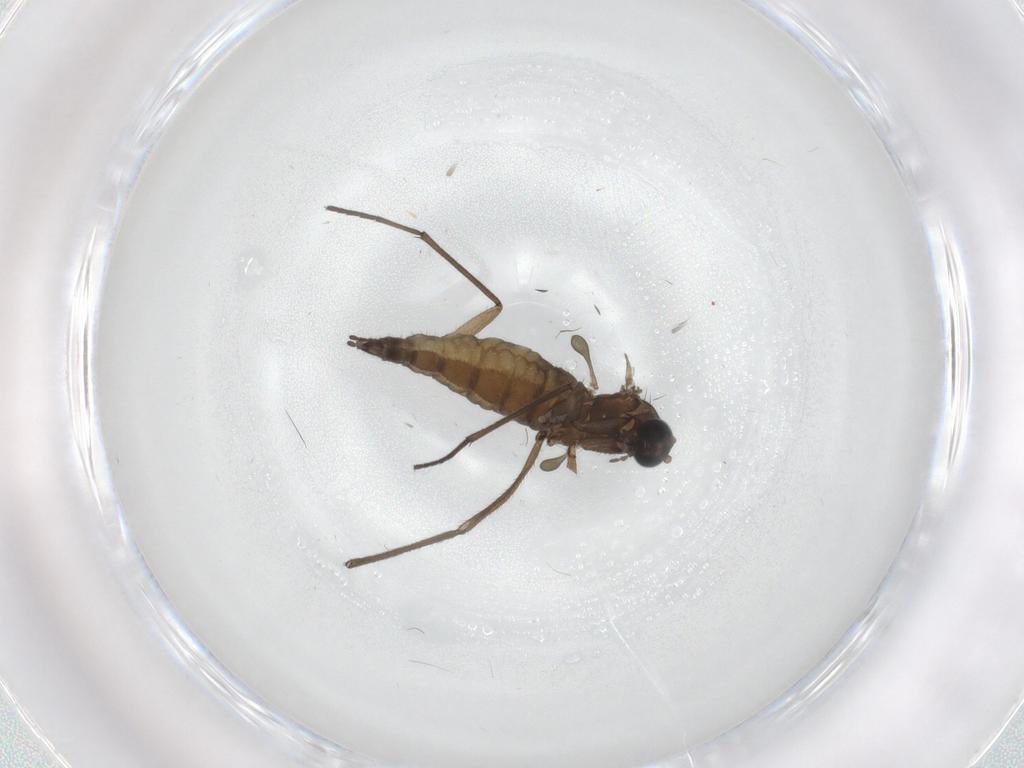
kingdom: Animalia
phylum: Arthropoda
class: Insecta
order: Diptera
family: Sciaridae
